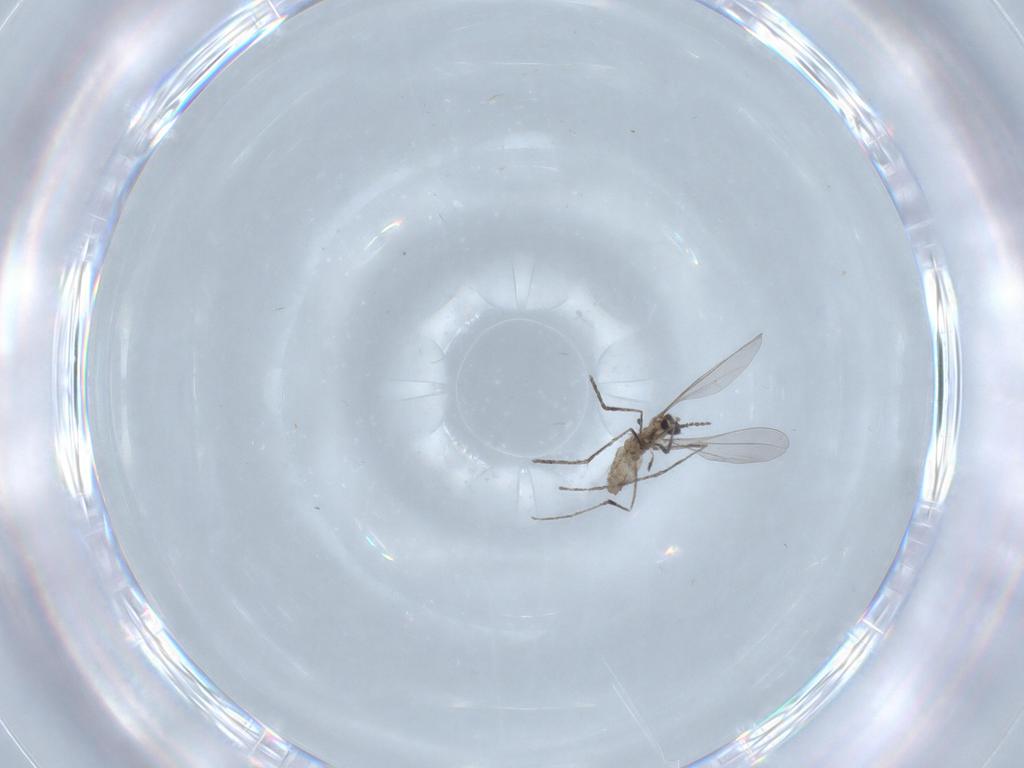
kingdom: Animalia
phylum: Arthropoda
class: Insecta
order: Diptera
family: Cecidomyiidae
